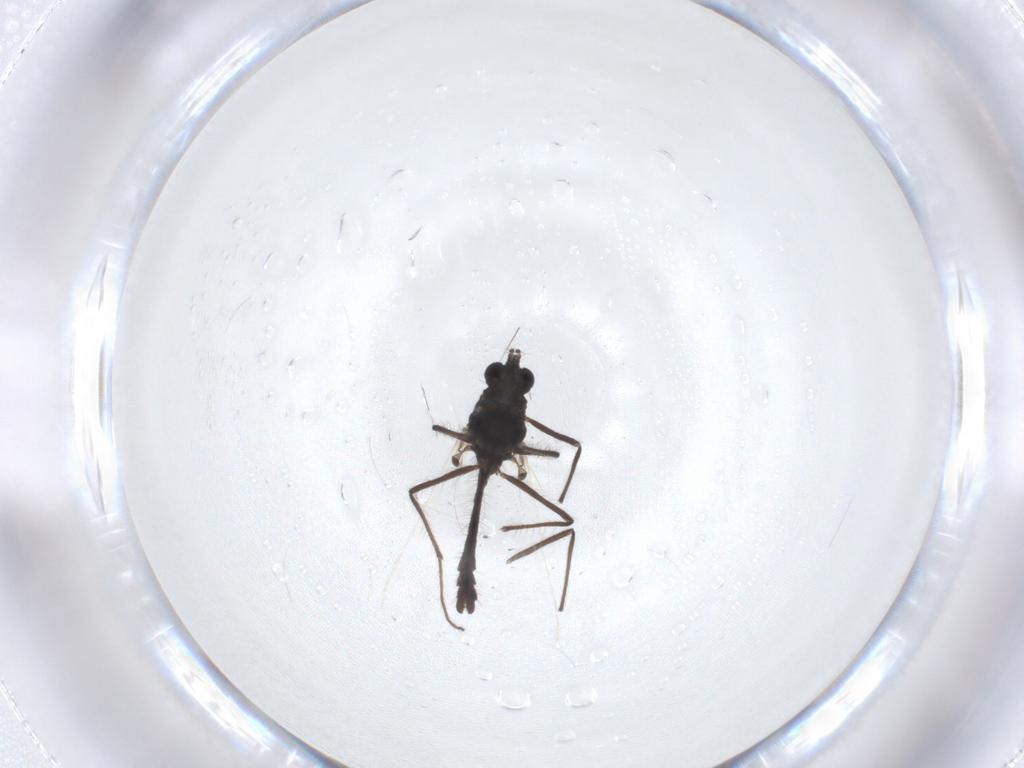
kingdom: Animalia
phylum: Arthropoda
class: Insecta
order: Diptera
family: Chironomidae
